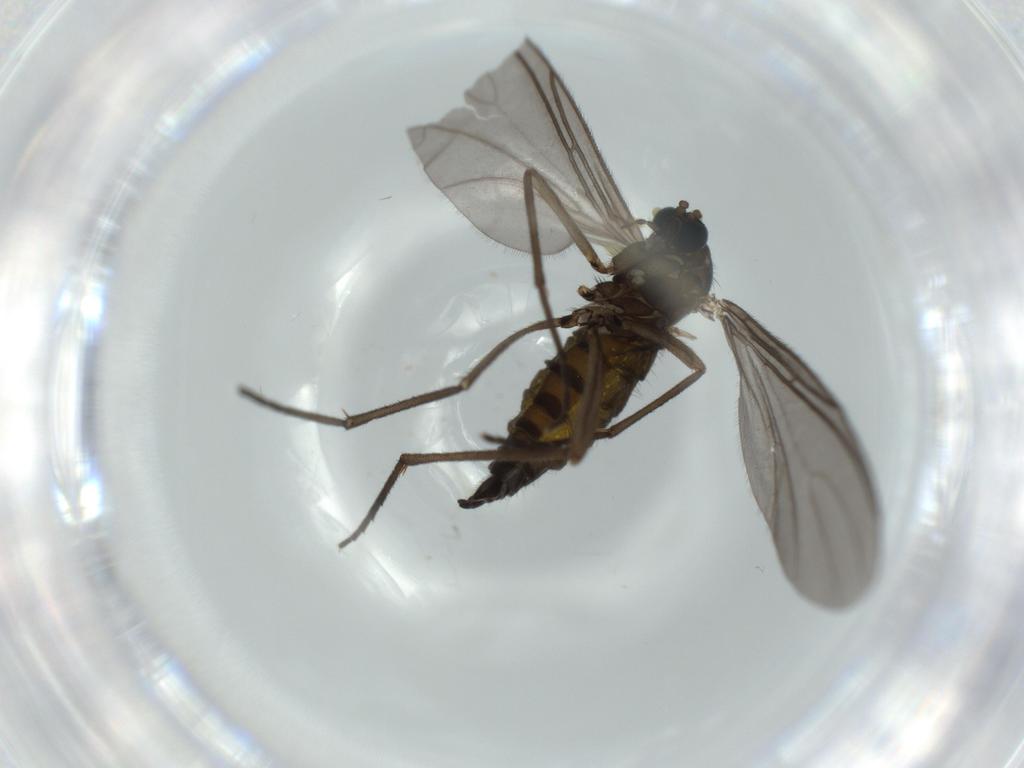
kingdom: Animalia
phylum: Arthropoda
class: Insecta
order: Diptera
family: Sciaridae
